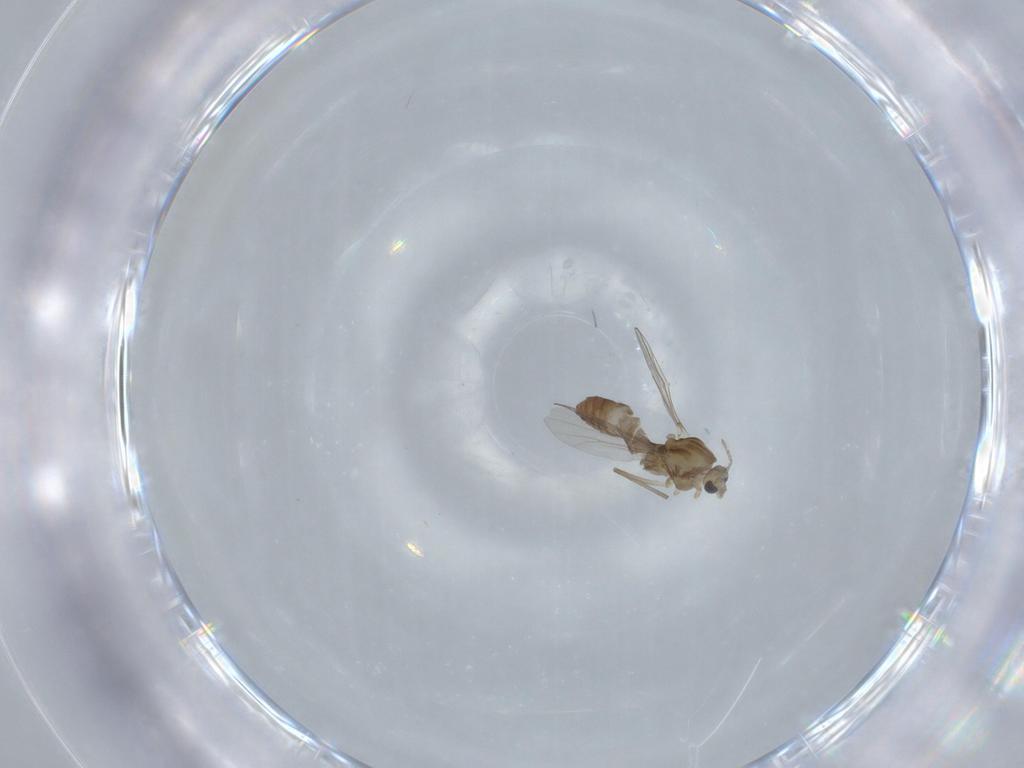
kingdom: Animalia
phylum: Arthropoda
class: Insecta
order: Diptera
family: Chironomidae
